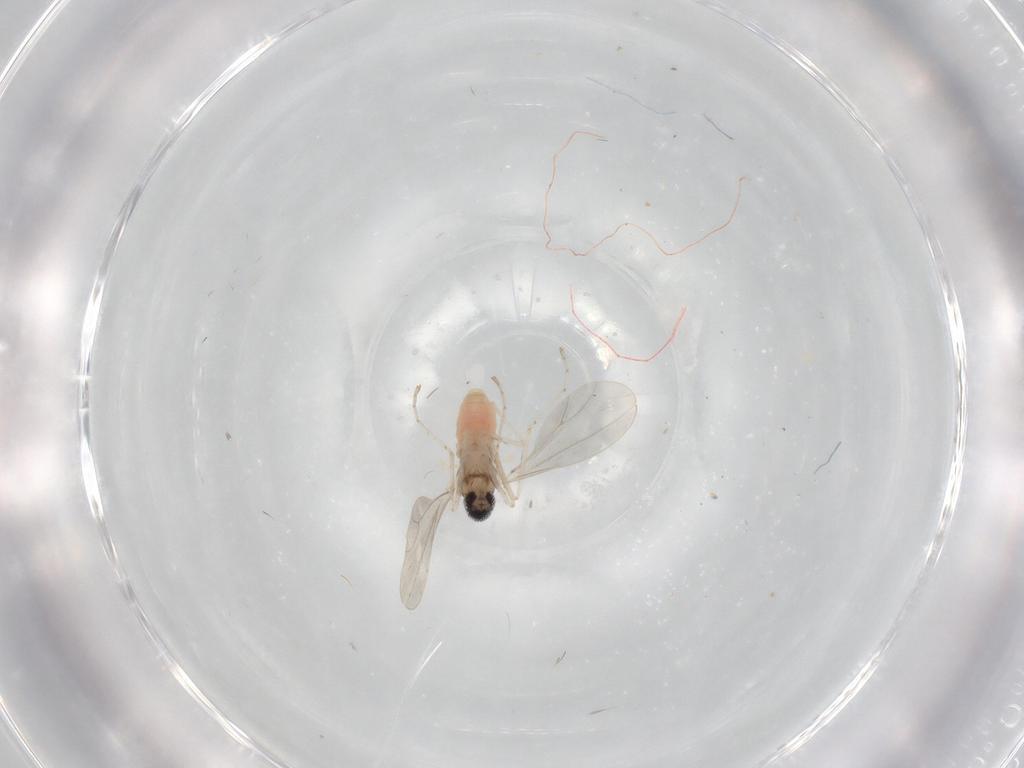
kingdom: Animalia
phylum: Arthropoda
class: Insecta
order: Diptera
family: Cecidomyiidae
